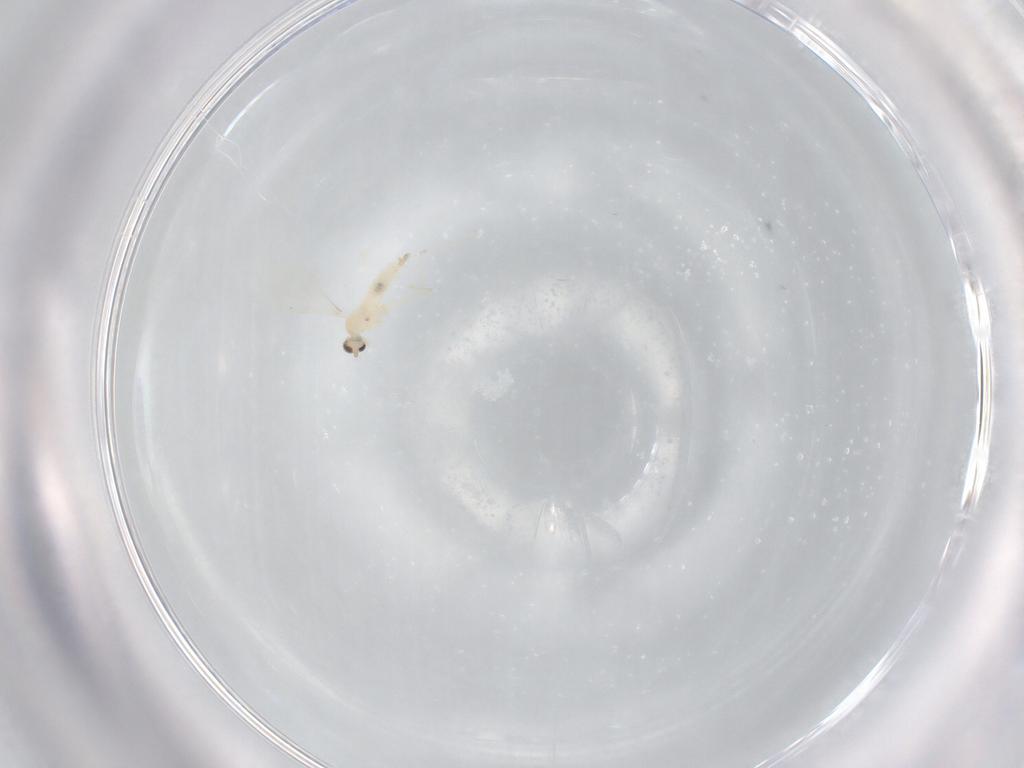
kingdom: Animalia
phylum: Arthropoda
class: Insecta
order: Diptera
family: Cecidomyiidae
